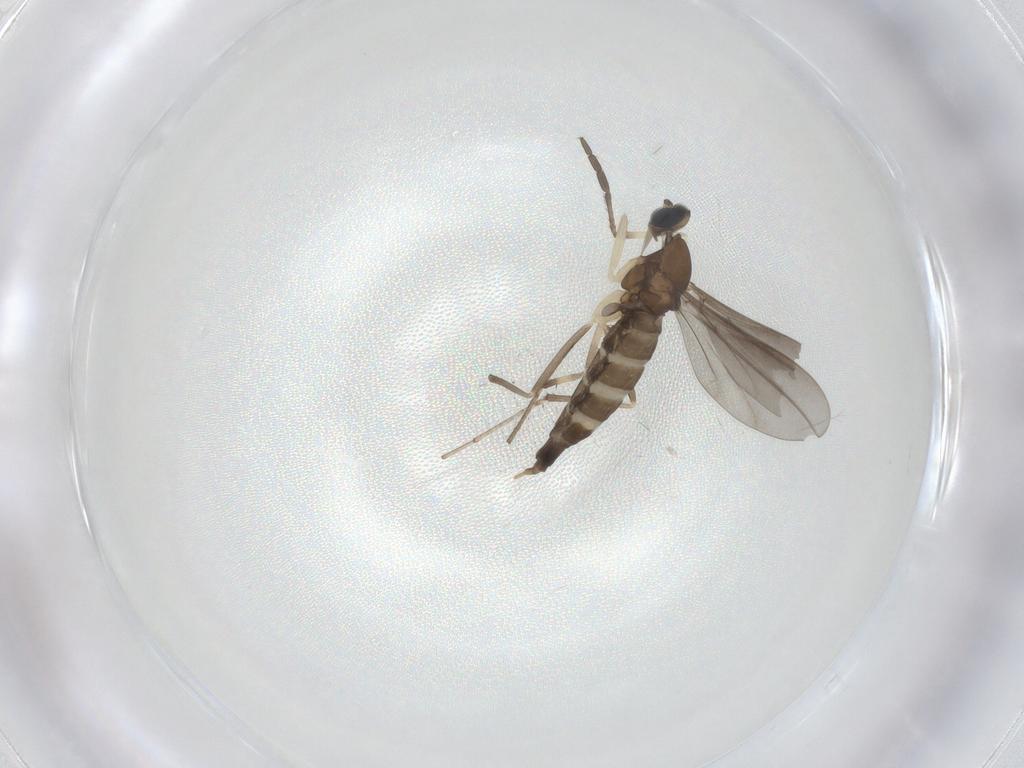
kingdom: Animalia
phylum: Arthropoda
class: Insecta
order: Diptera
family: Cecidomyiidae
